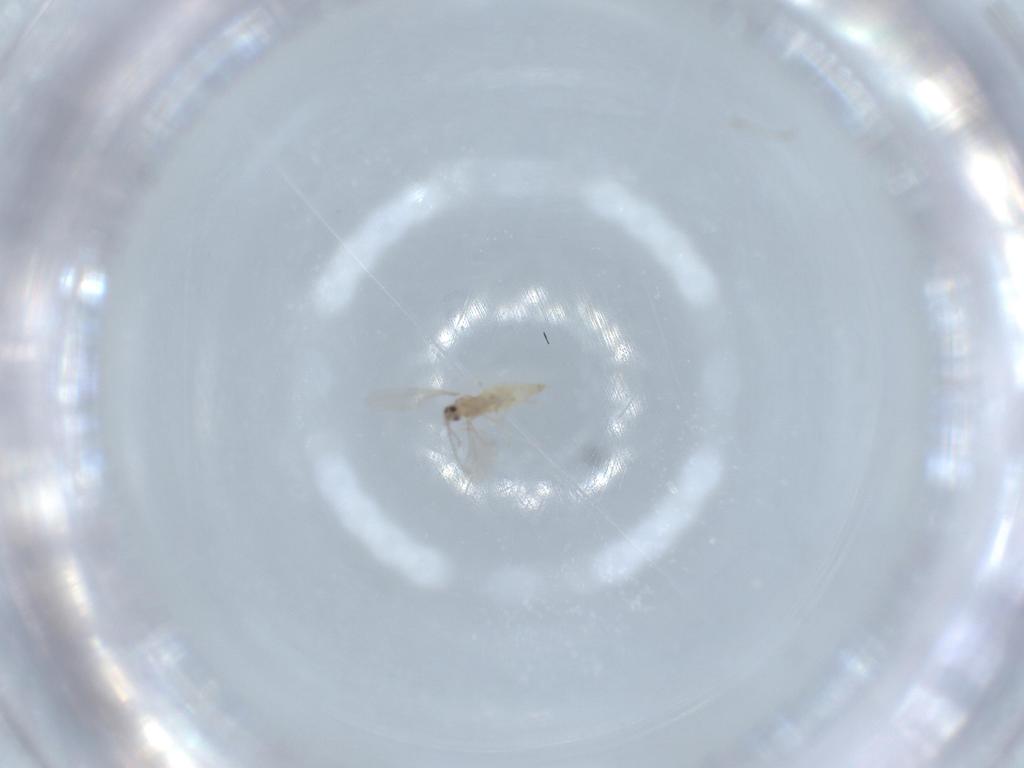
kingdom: Animalia
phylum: Arthropoda
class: Insecta
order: Diptera
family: Cecidomyiidae
